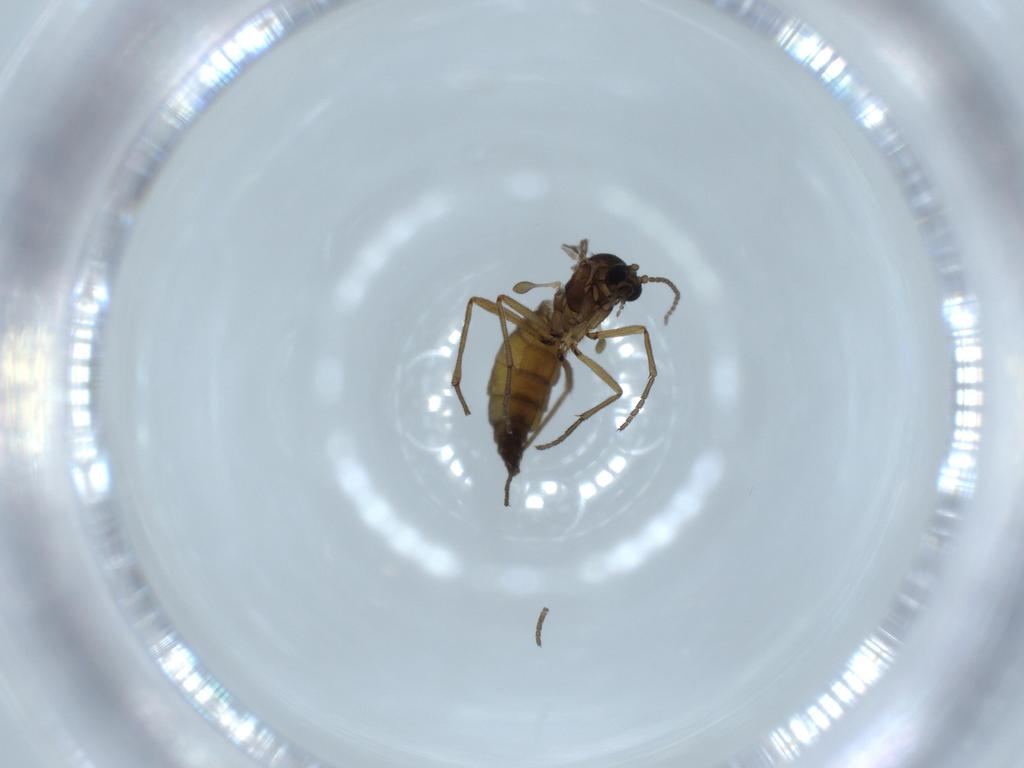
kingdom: Animalia
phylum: Arthropoda
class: Insecta
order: Diptera
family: Sciaridae
